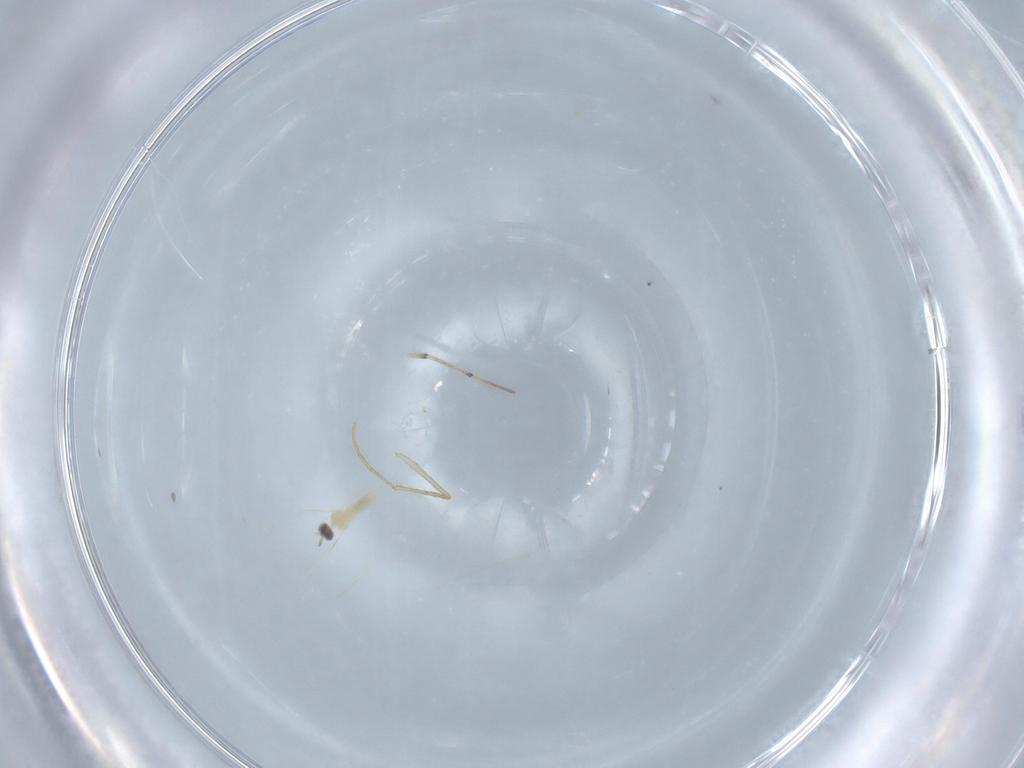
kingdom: Animalia
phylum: Arthropoda
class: Insecta
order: Diptera
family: Cecidomyiidae
